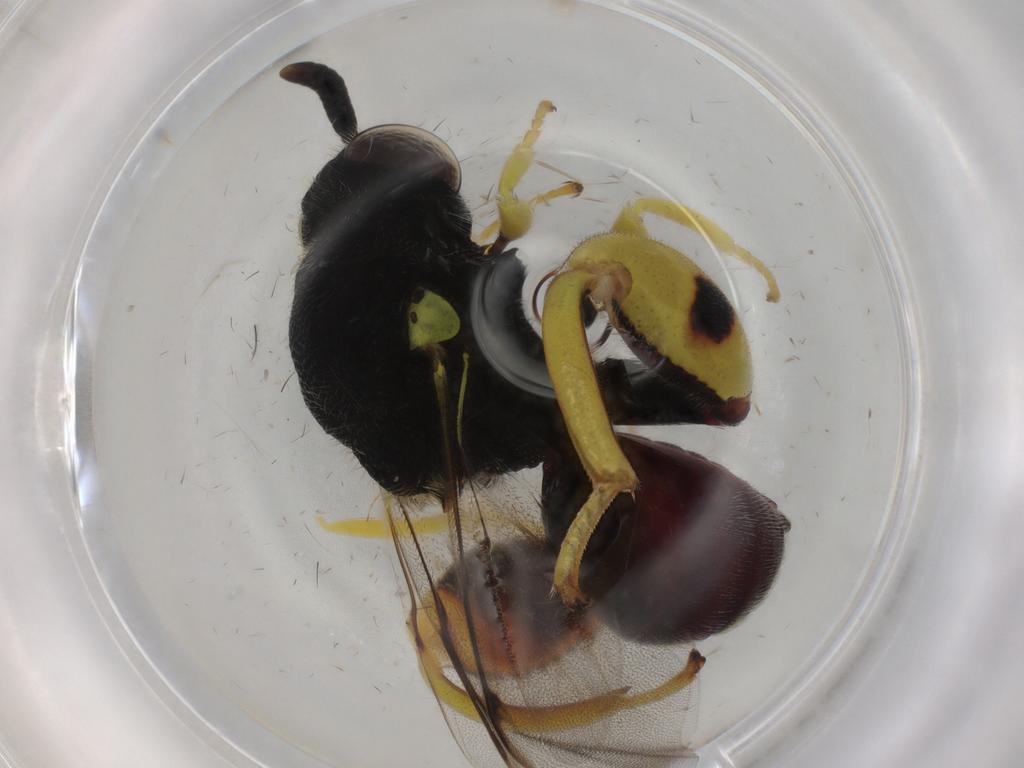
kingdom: Animalia
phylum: Arthropoda
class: Insecta
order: Hymenoptera
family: Scelionidae
